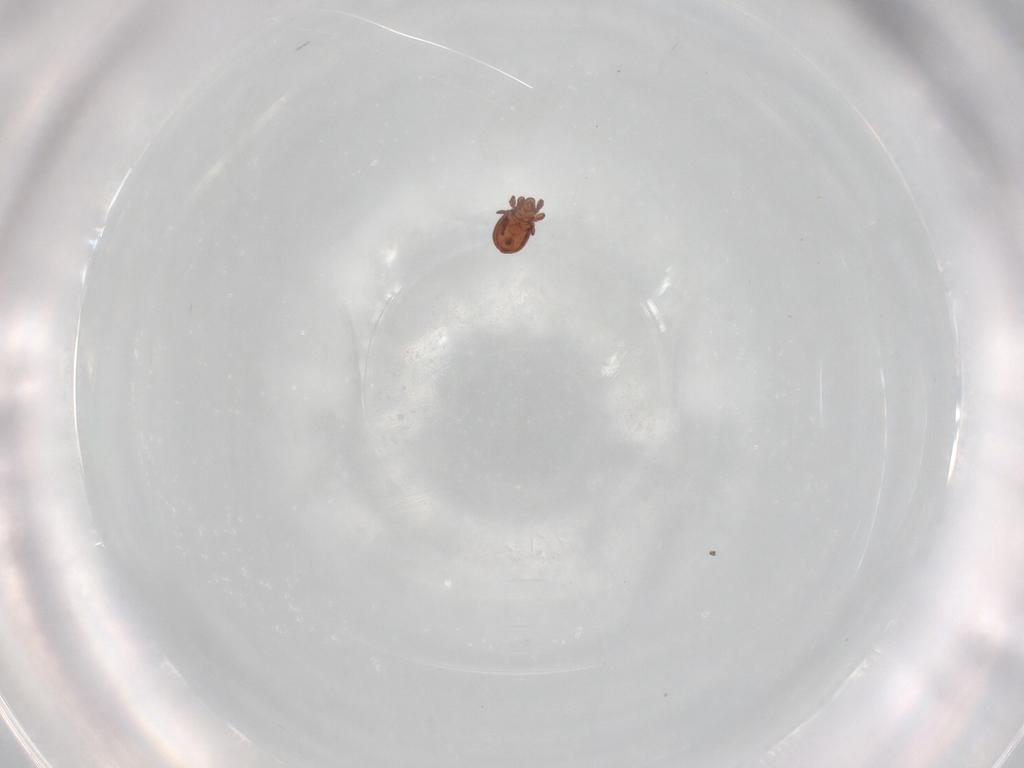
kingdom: Animalia
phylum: Arthropoda
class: Arachnida
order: Sarcoptiformes
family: Eremaeidae
